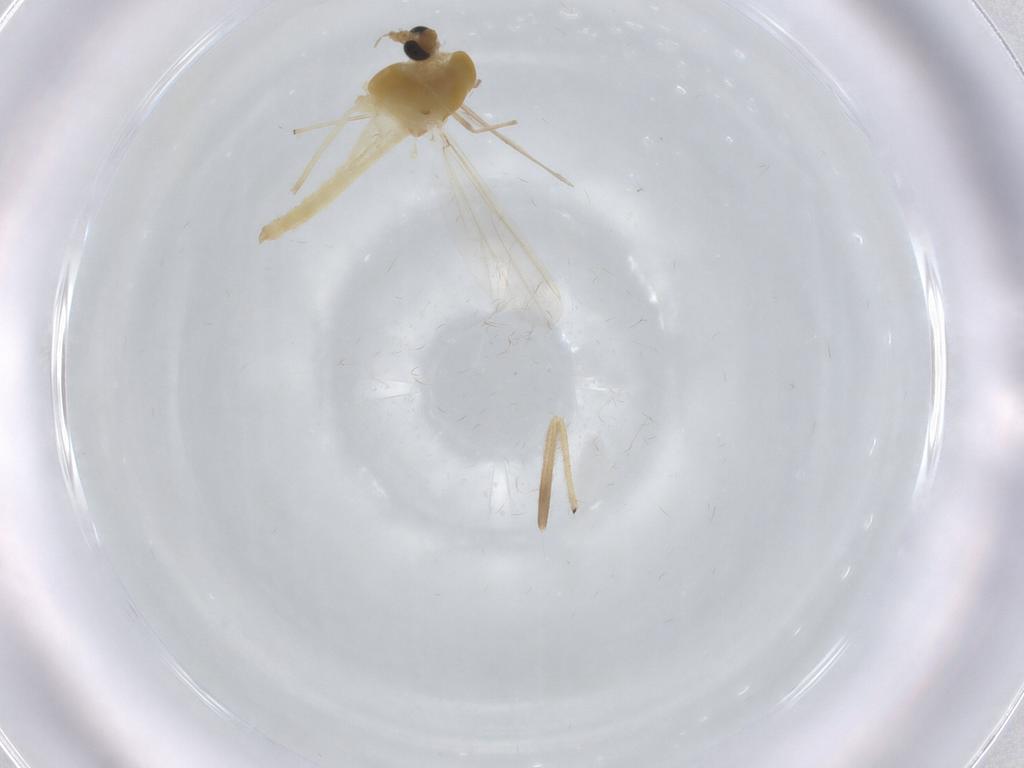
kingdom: Animalia
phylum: Arthropoda
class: Insecta
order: Diptera
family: Chironomidae
